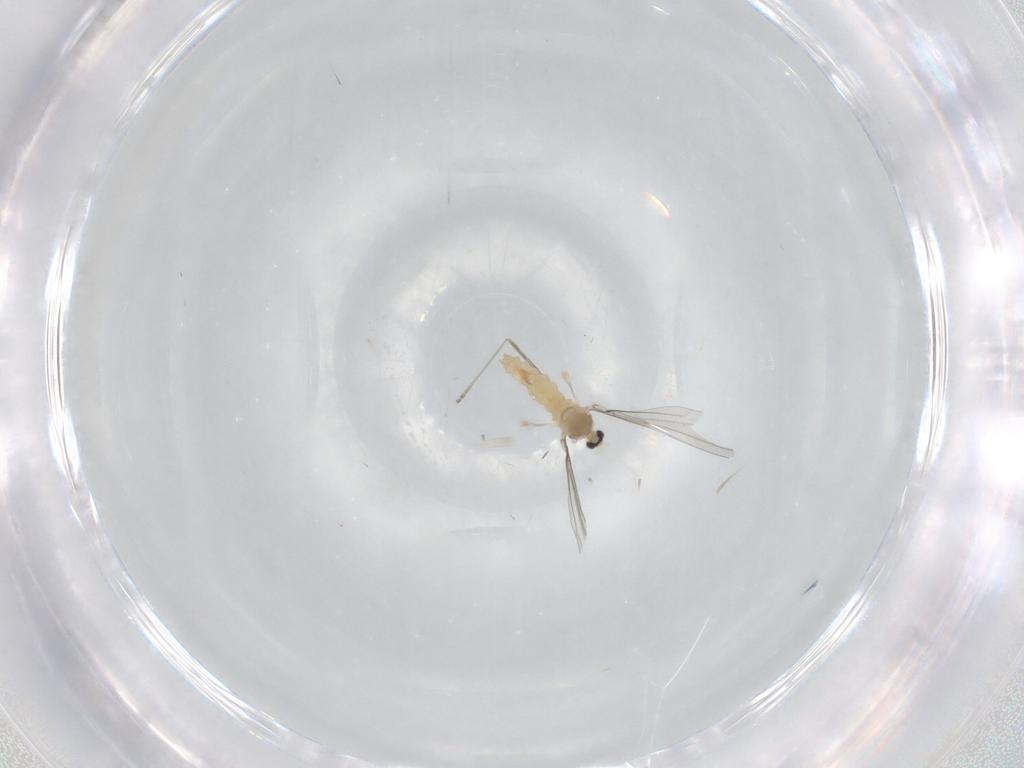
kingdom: Animalia
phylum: Arthropoda
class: Insecta
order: Diptera
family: Cecidomyiidae
